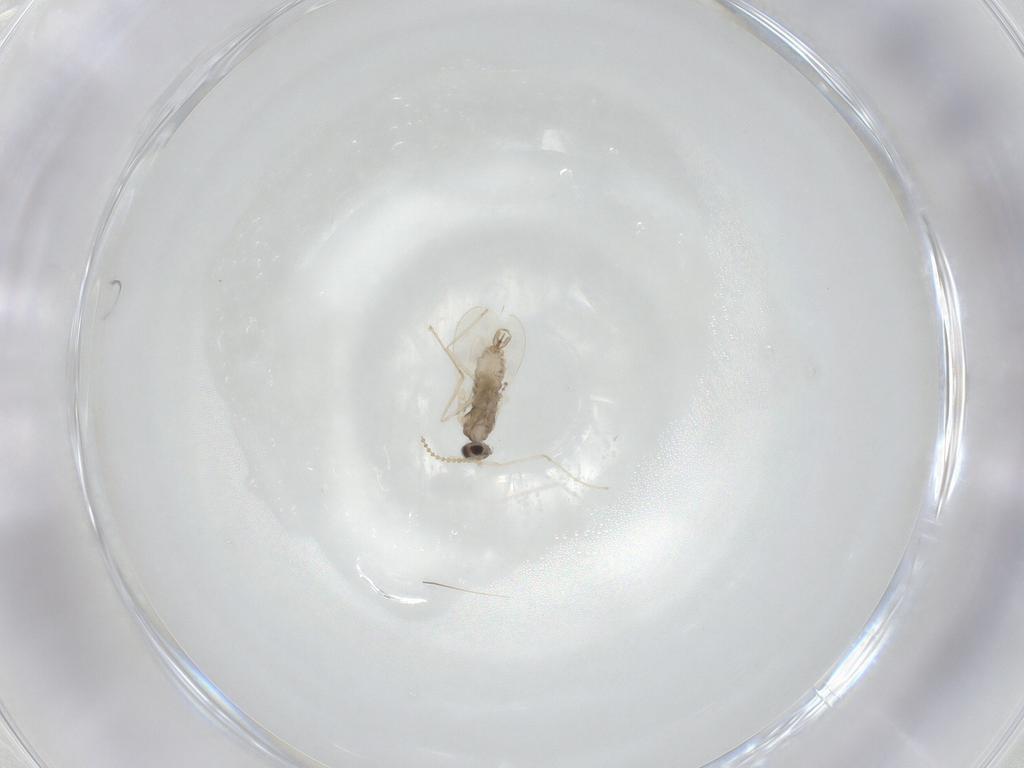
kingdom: Animalia
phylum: Arthropoda
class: Insecta
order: Diptera
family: Cecidomyiidae
